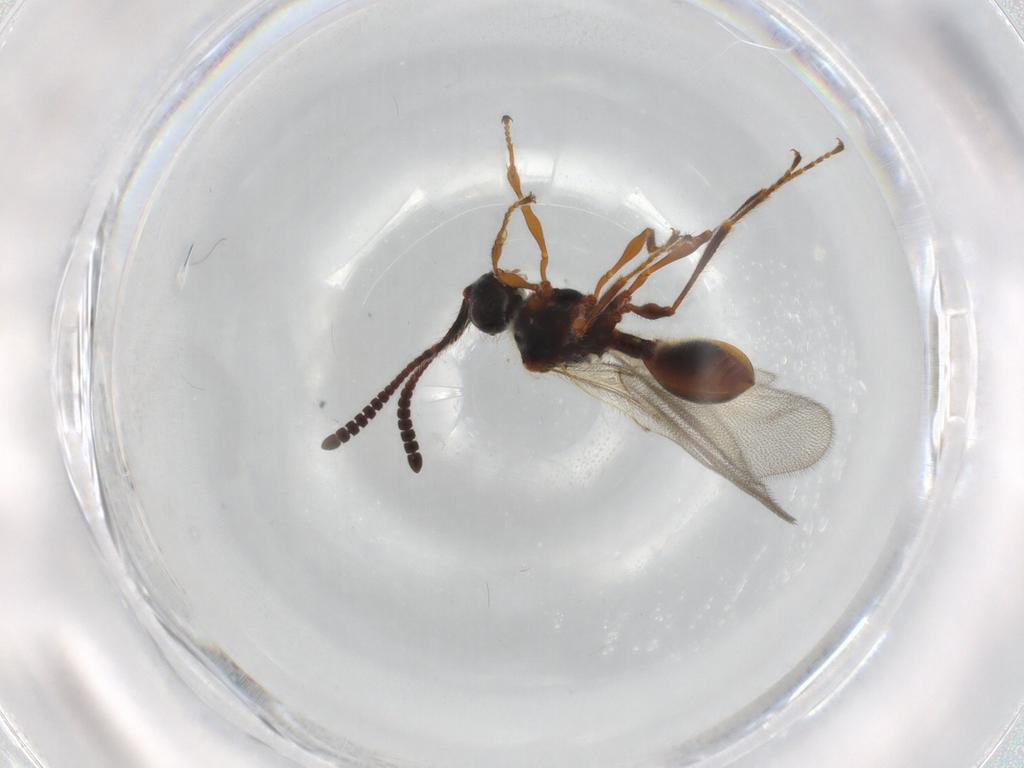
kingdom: Animalia
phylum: Arthropoda
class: Insecta
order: Hymenoptera
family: Diapriidae
